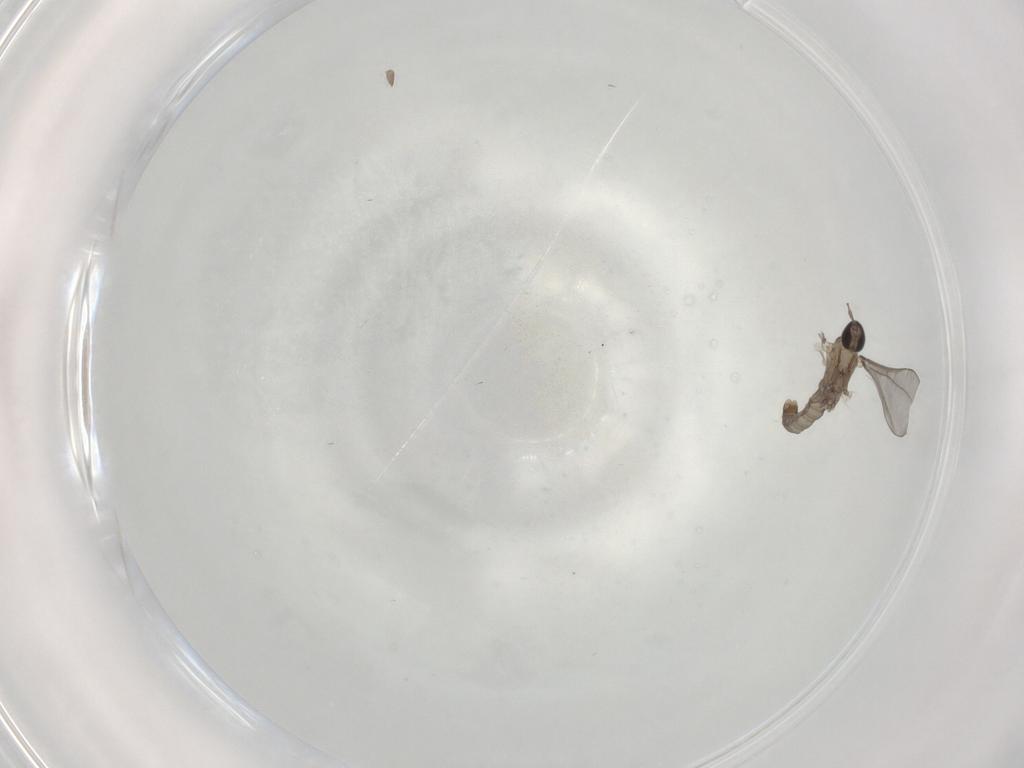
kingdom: Animalia
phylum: Arthropoda
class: Insecta
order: Diptera
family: Cecidomyiidae
